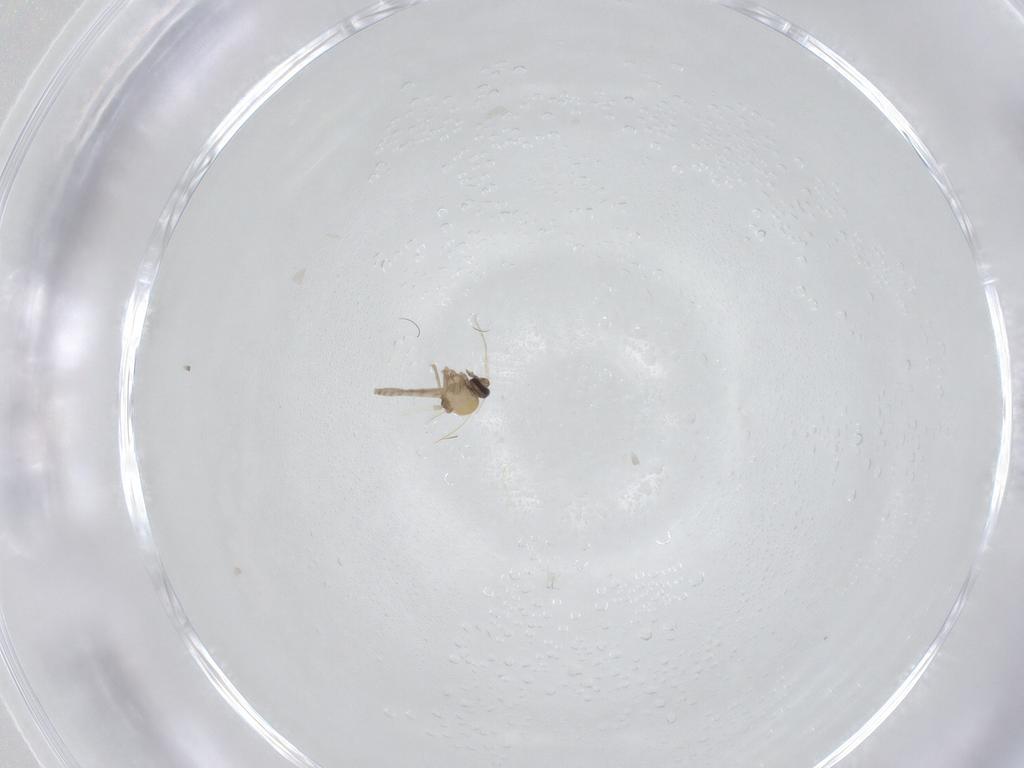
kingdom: Animalia
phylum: Arthropoda
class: Insecta
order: Diptera
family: Ceratopogonidae
